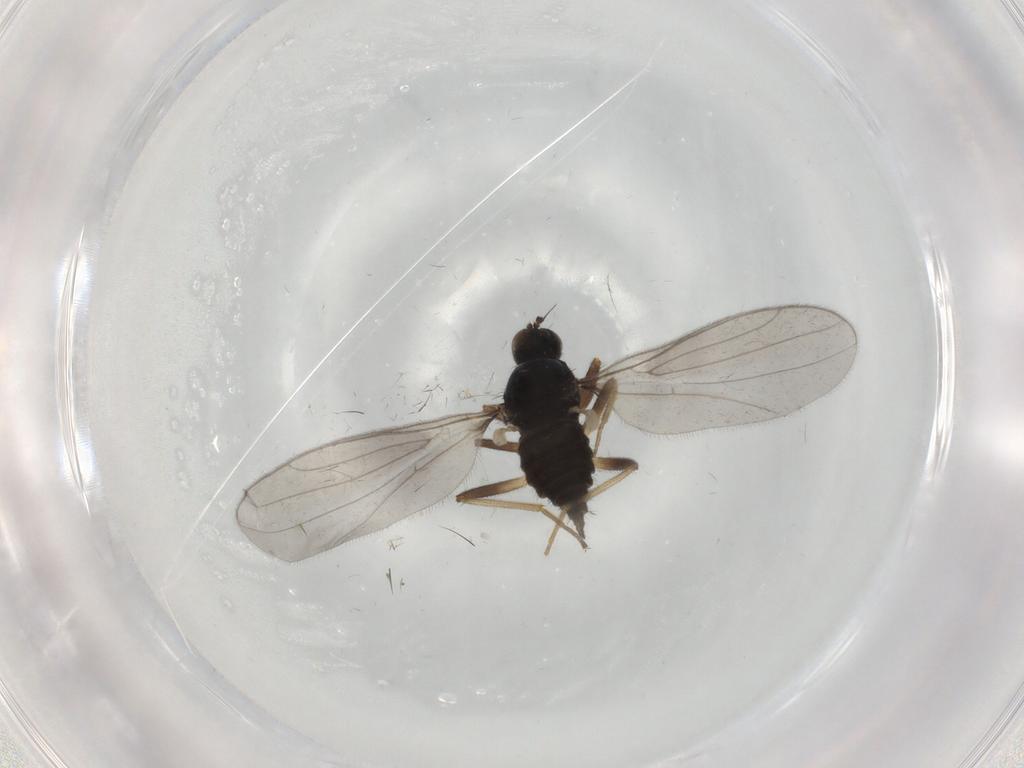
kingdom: Animalia
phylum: Arthropoda
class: Insecta
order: Diptera
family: Hybotidae
